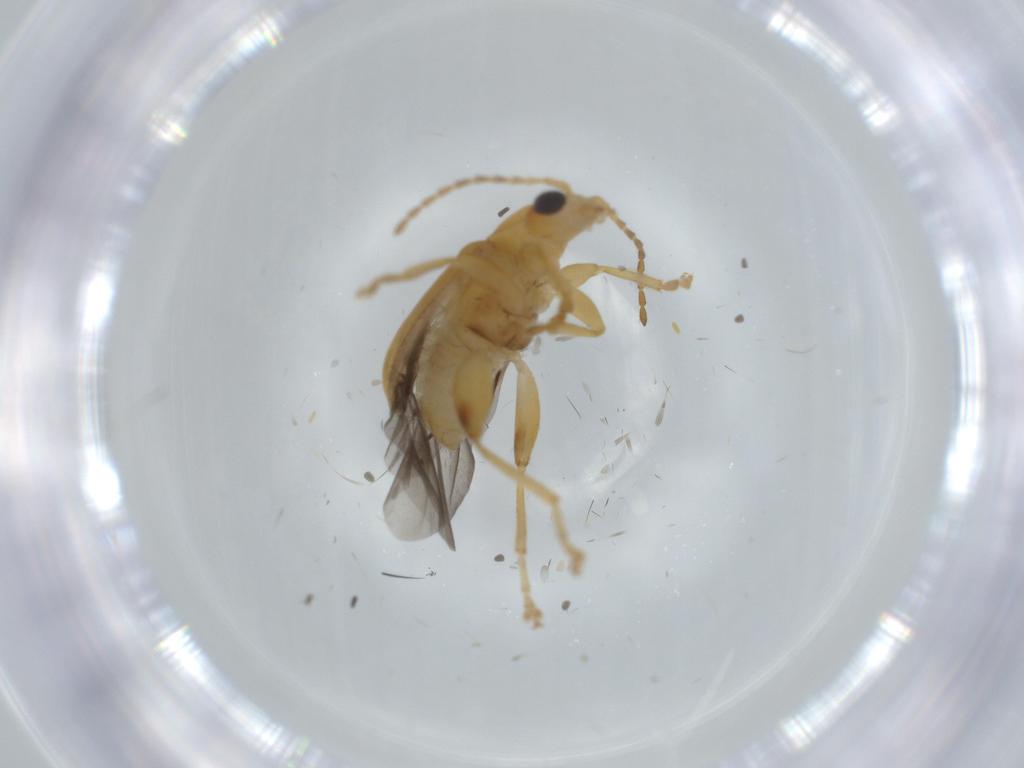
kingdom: Animalia
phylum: Arthropoda
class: Insecta
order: Coleoptera
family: Chrysomelidae
